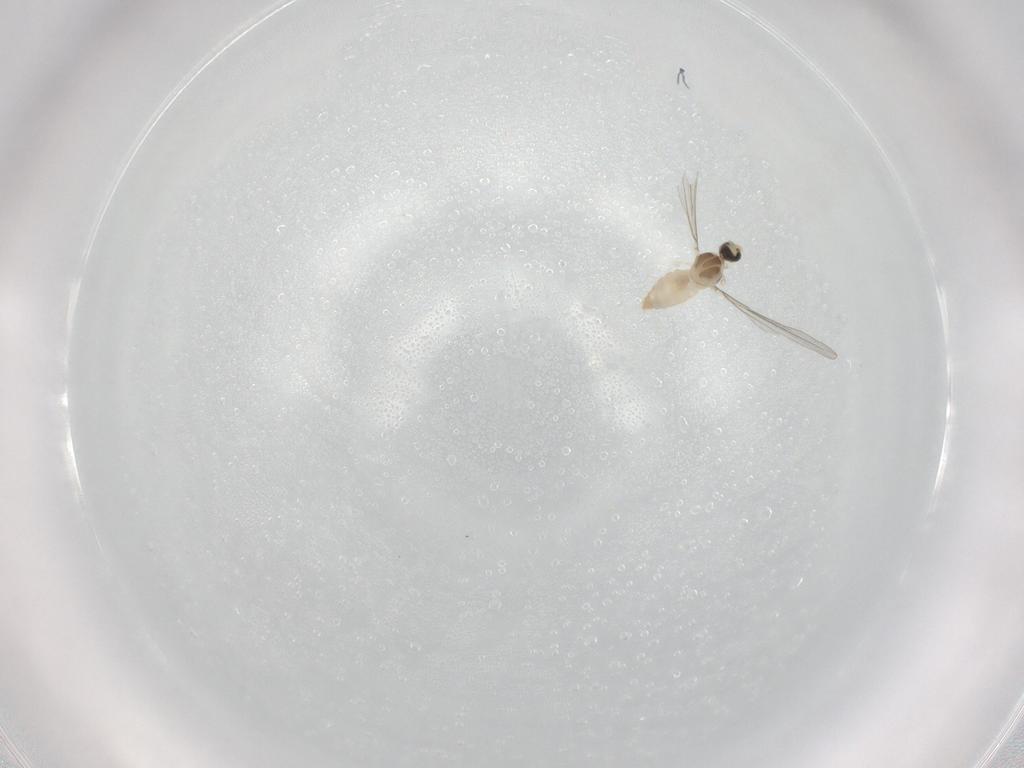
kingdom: Animalia
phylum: Arthropoda
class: Insecta
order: Diptera
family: Cecidomyiidae
